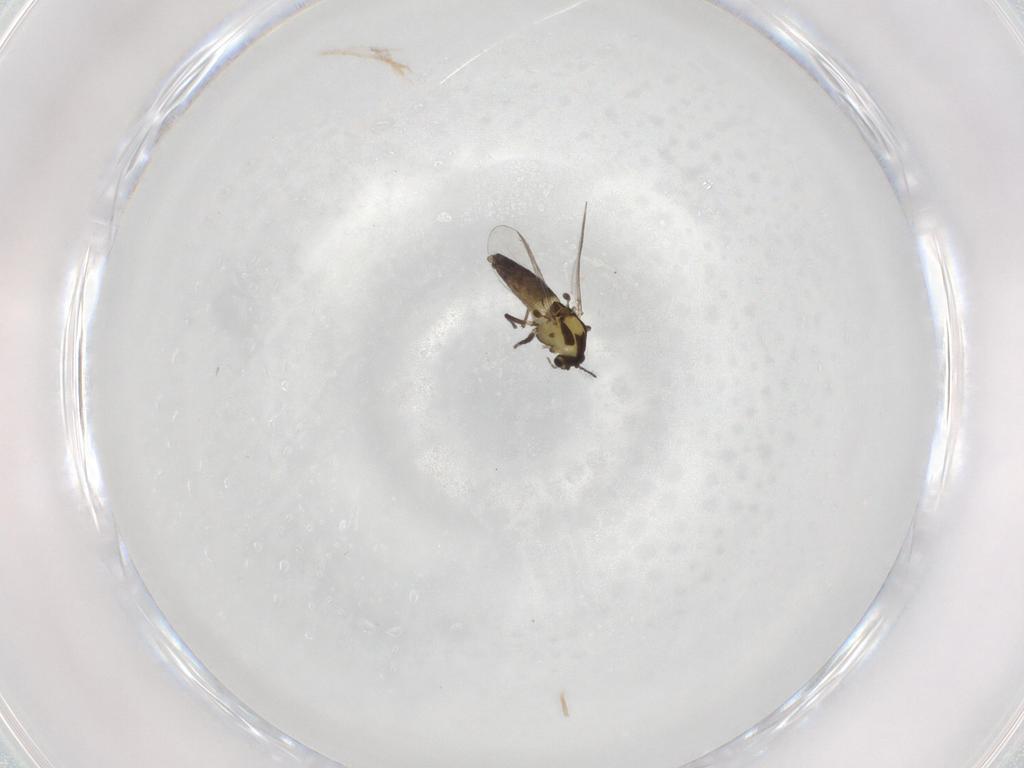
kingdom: Animalia
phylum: Arthropoda
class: Insecta
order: Diptera
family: Chironomidae
